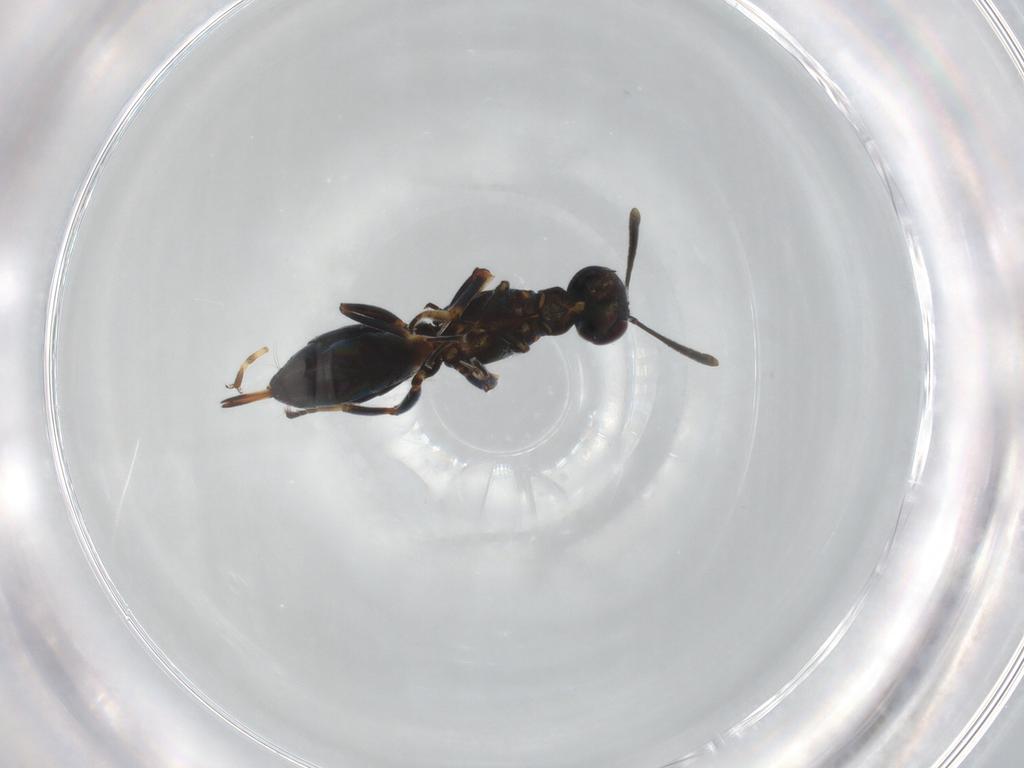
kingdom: Animalia
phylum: Arthropoda
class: Insecta
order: Hymenoptera
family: Eupelmidae
